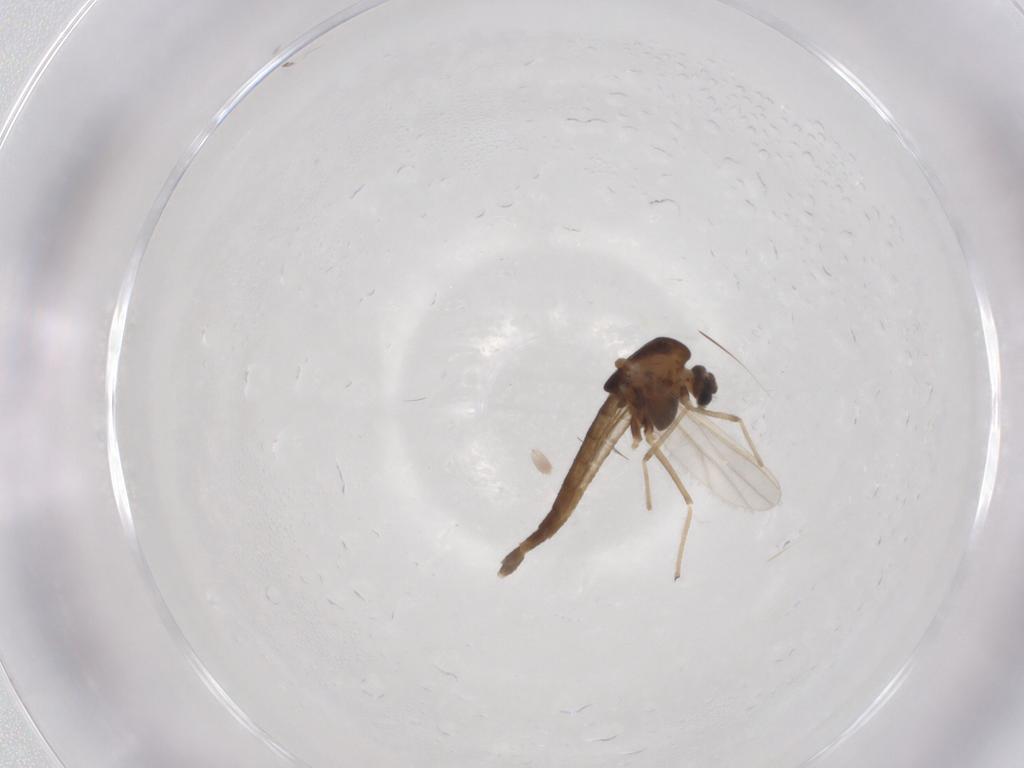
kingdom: Animalia
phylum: Arthropoda
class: Insecta
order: Diptera
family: Chironomidae
